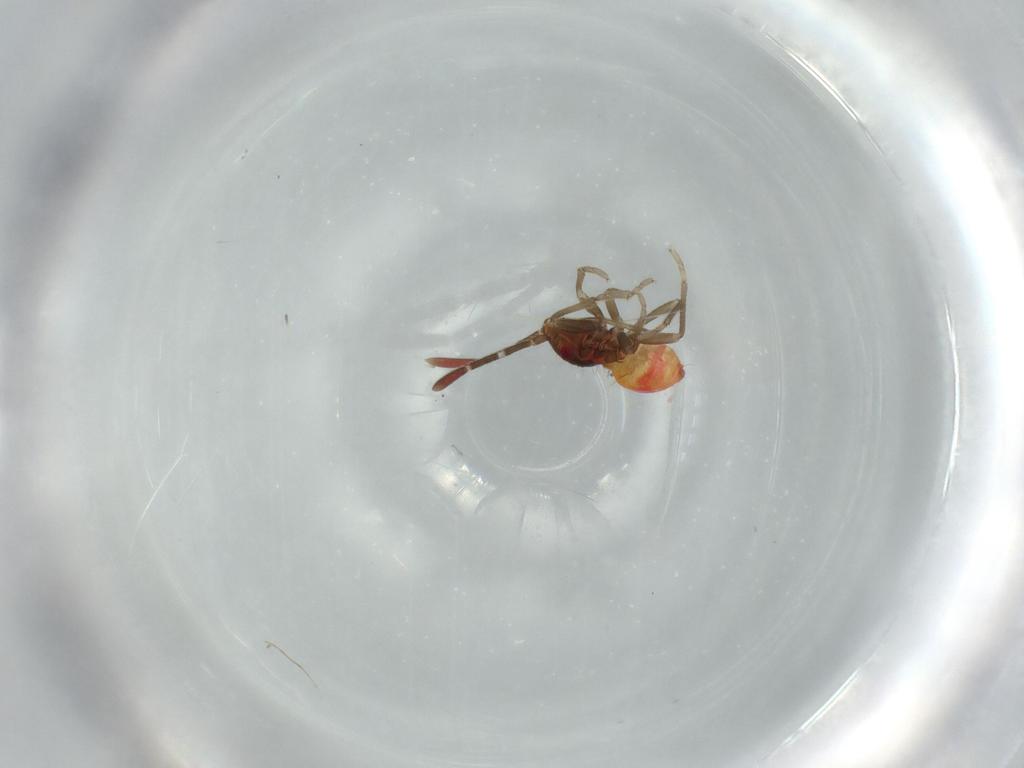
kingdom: Animalia
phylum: Arthropoda
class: Insecta
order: Hemiptera
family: Rhyparochromidae
